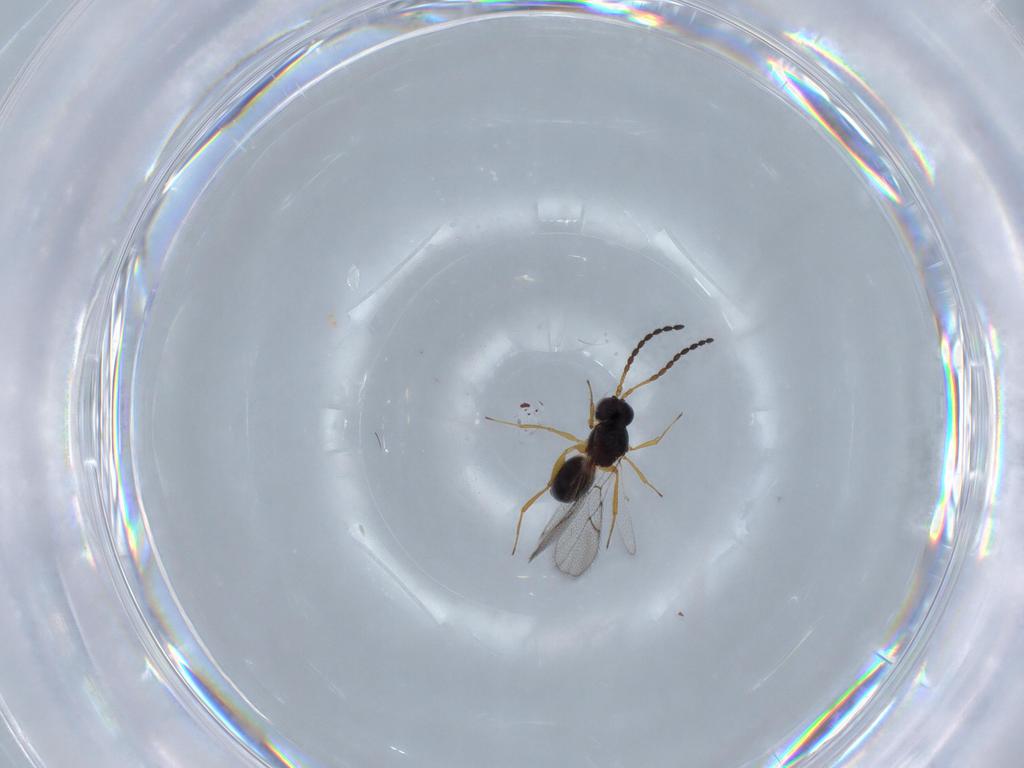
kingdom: Animalia
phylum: Arthropoda
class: Insecta
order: Hymenoptera
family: Figitidae
